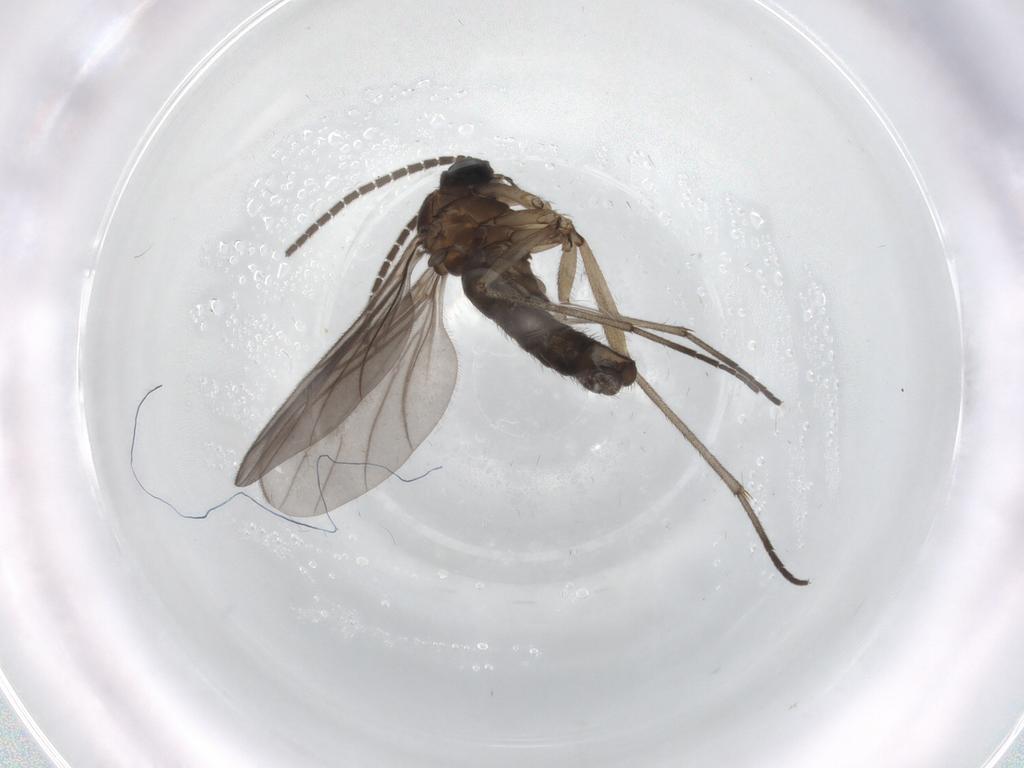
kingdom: Animalia
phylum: Arthropoda
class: Insecta
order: Diptera
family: Sciaridae
